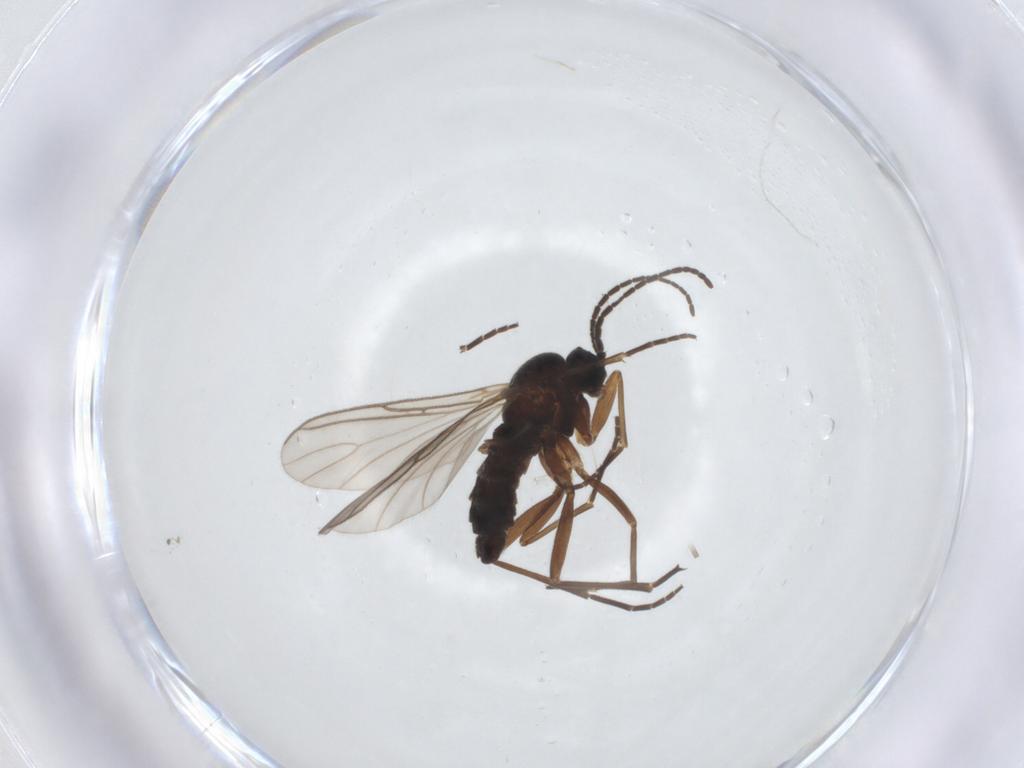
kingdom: Animalia
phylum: Arthropoda
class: Insecta
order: Diptera
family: Sciaridae
